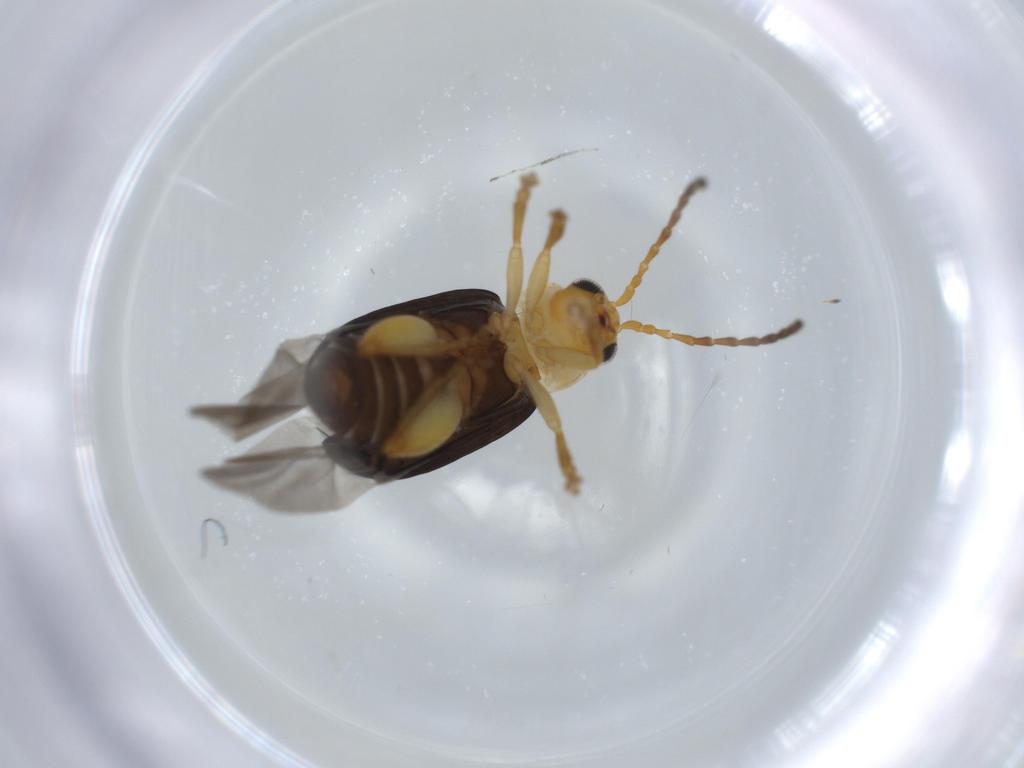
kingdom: Animalia
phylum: Arthropoda
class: Insecta
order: Coleoptera
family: Chrysomelidae
